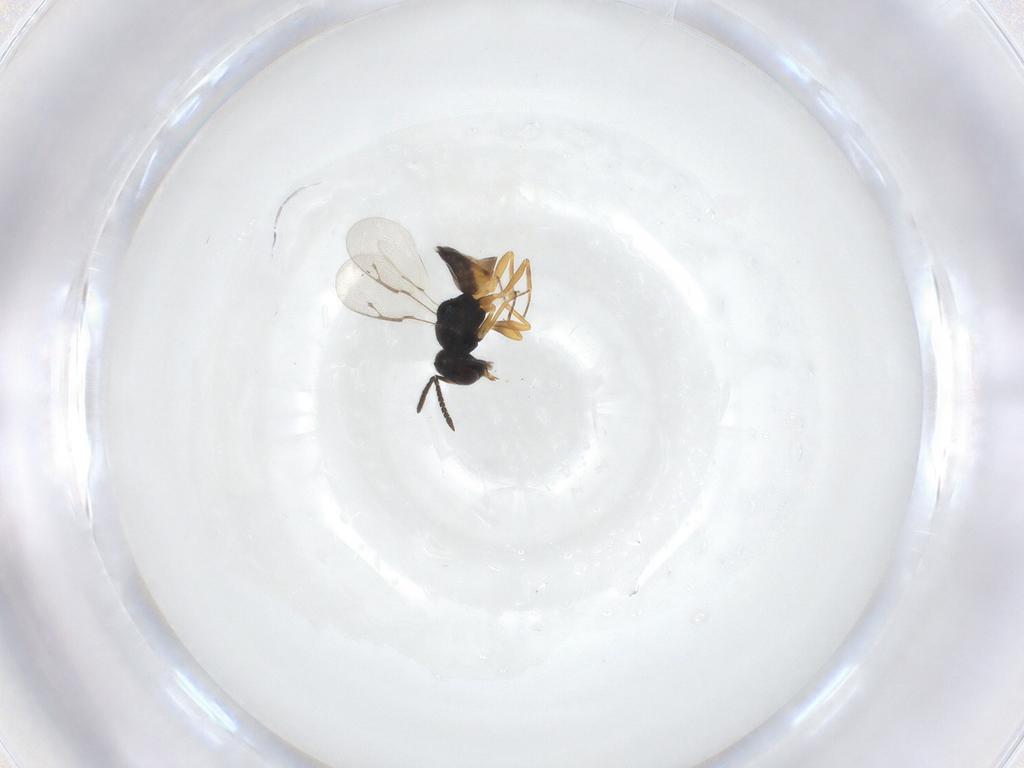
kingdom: Animalia
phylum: Arthropoda
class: Insecta
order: Hymenoptera
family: Pteromalidae
